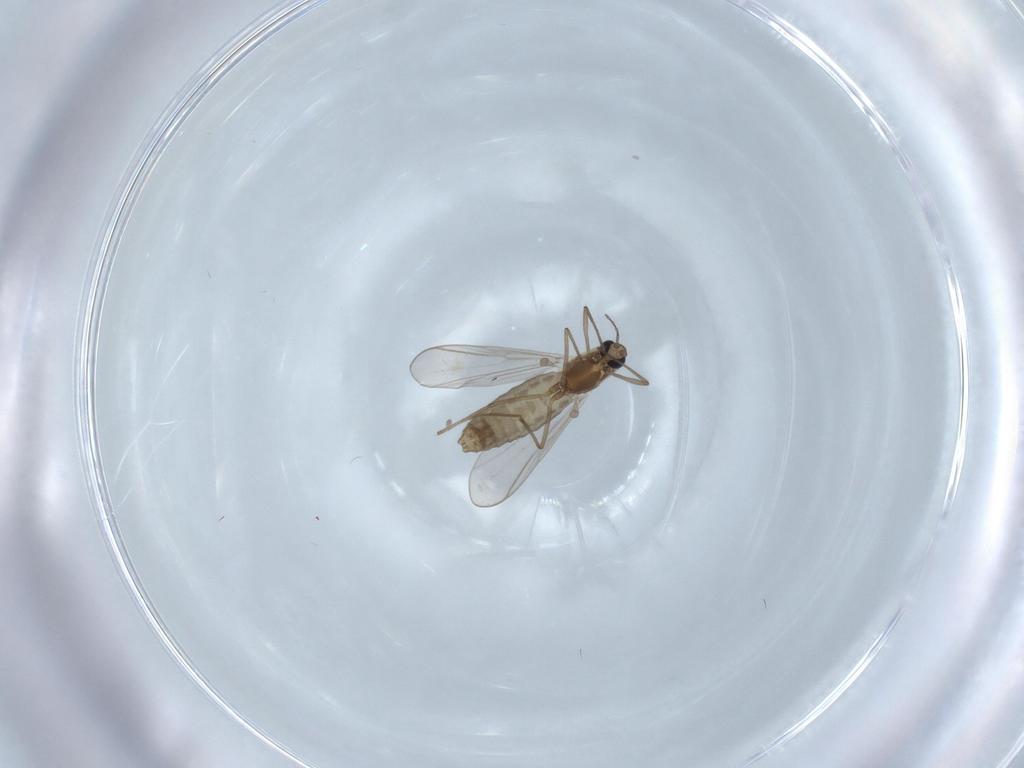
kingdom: Animalia
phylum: Arthropoda
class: Insecta
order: Diptera
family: Chironomidae
